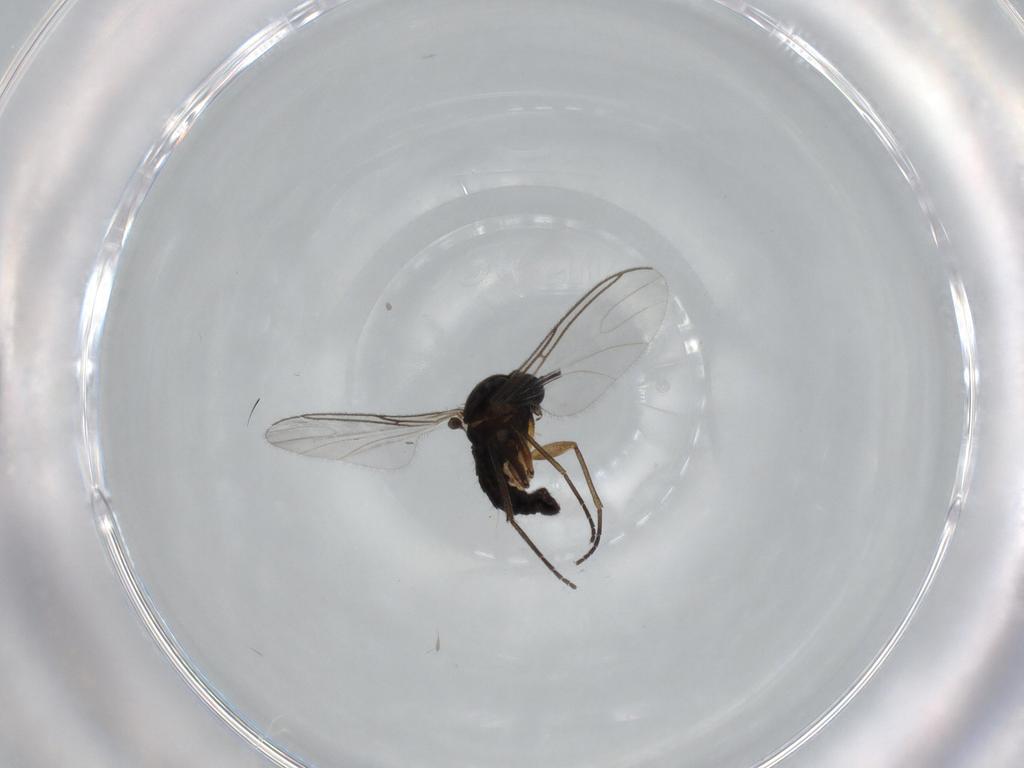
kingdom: Animalia
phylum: Arthropoda
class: Insecta
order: Diptera
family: Sciaridae
